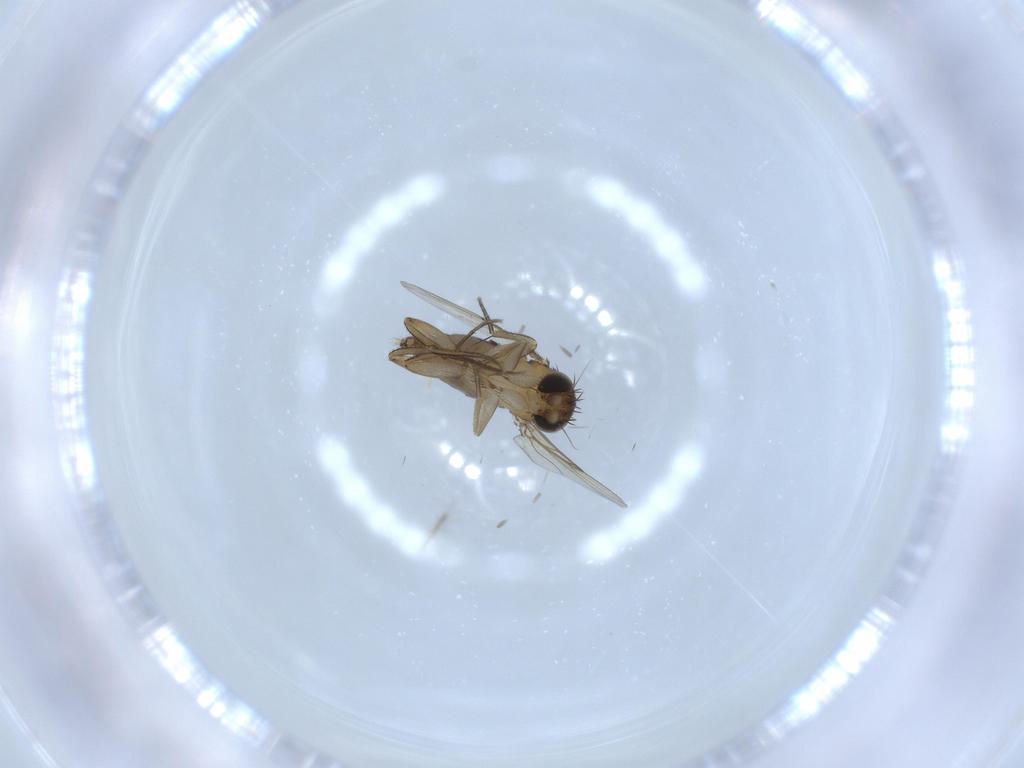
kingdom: Animalia
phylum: Arthropoda
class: Insecta
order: Diptera
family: Phoridae
